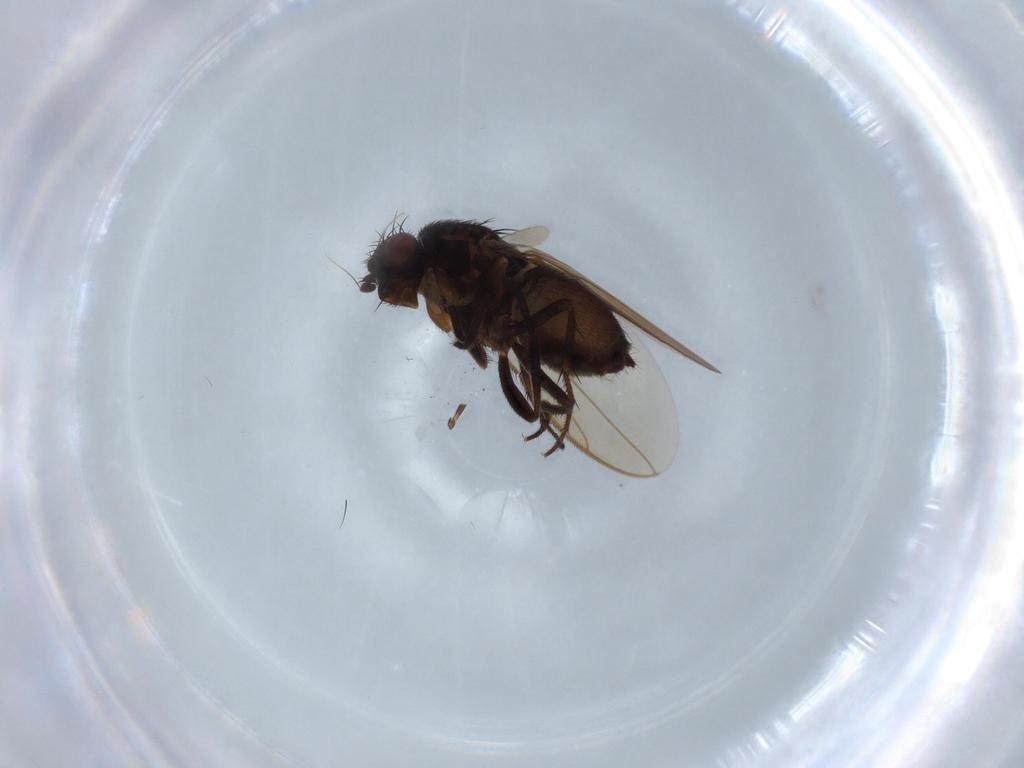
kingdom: Animalia
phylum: Arthropoda
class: Insecta
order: Diptera
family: Sphaeroceridae
